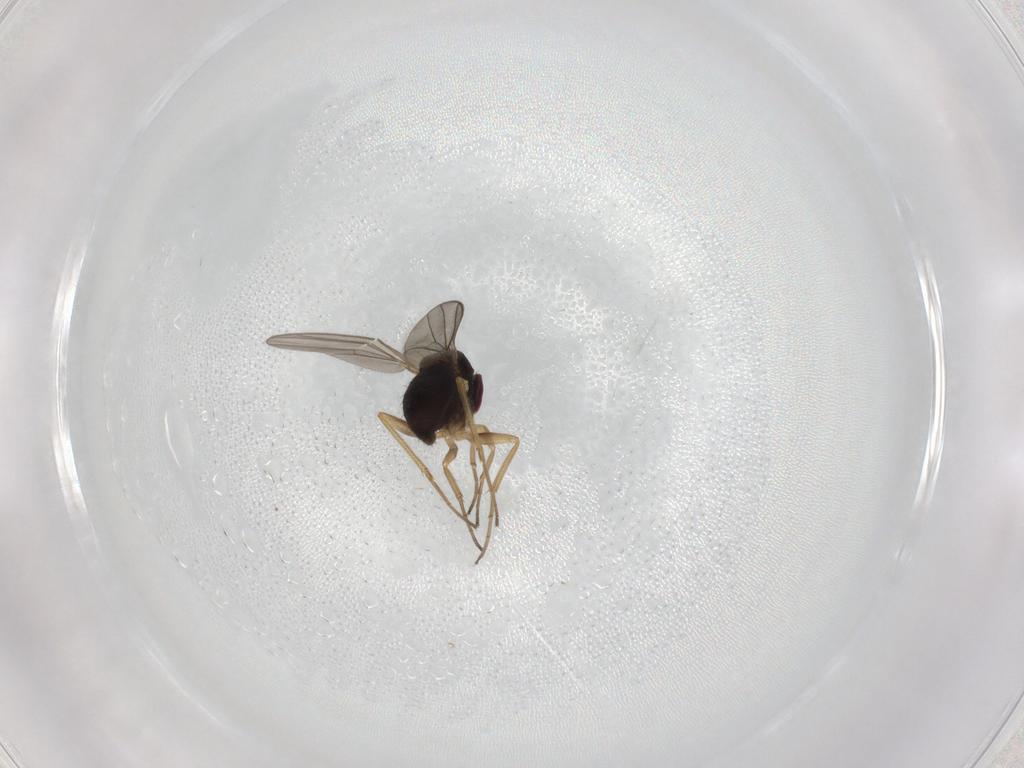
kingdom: Animalia
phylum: Arthropoda
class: Insecta
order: Diptera
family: Dolichopodidae
